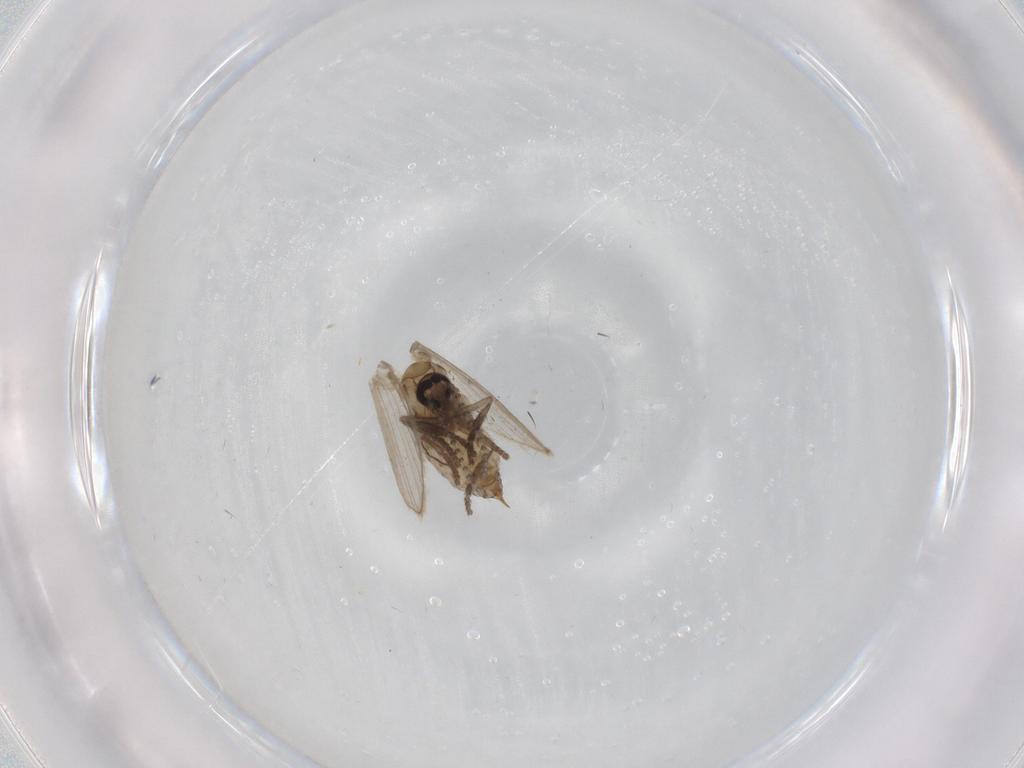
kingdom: Animalia
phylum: Arthropoda
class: Insecta
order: Diptera
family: Psychodidae
